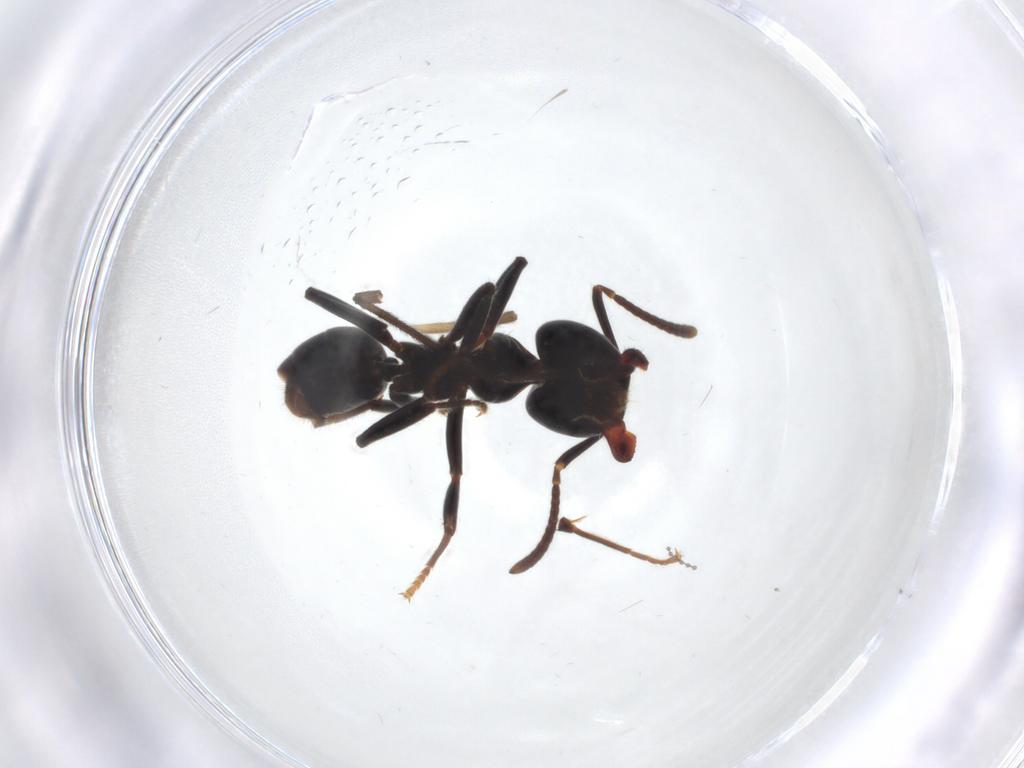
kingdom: Animalia
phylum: Arthropoda
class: Insecta
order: Hymenoptera
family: Formicidae
